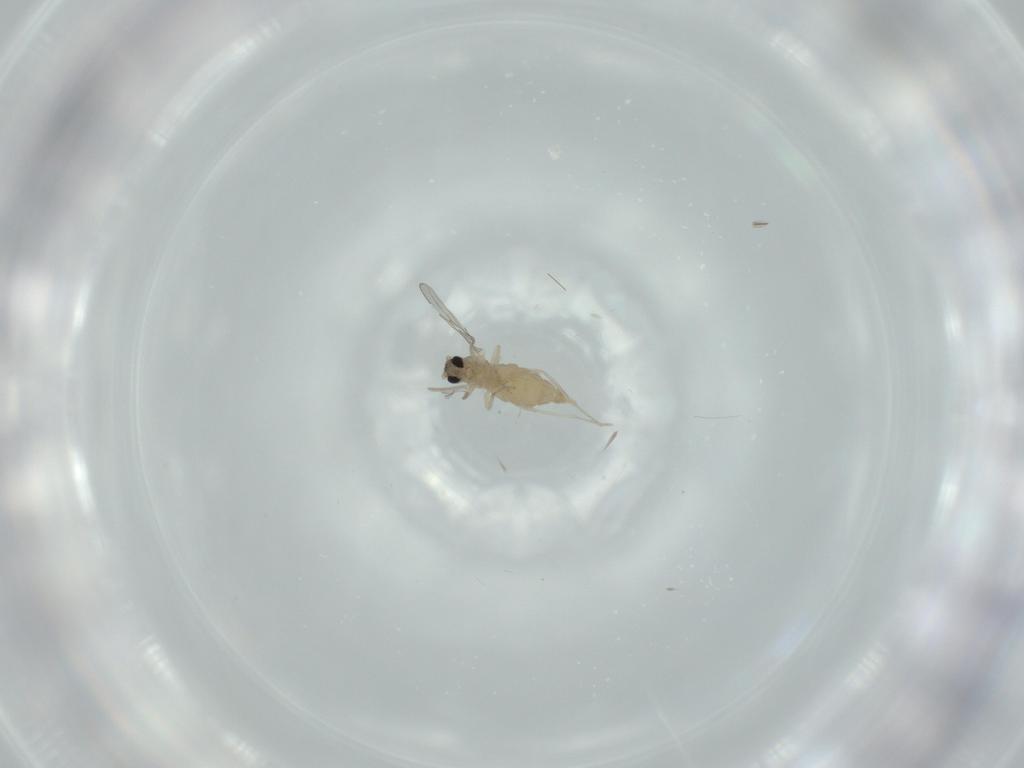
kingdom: Animalia
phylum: Arthropoda
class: Insecta
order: Diptera
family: Cecidomyiidae
